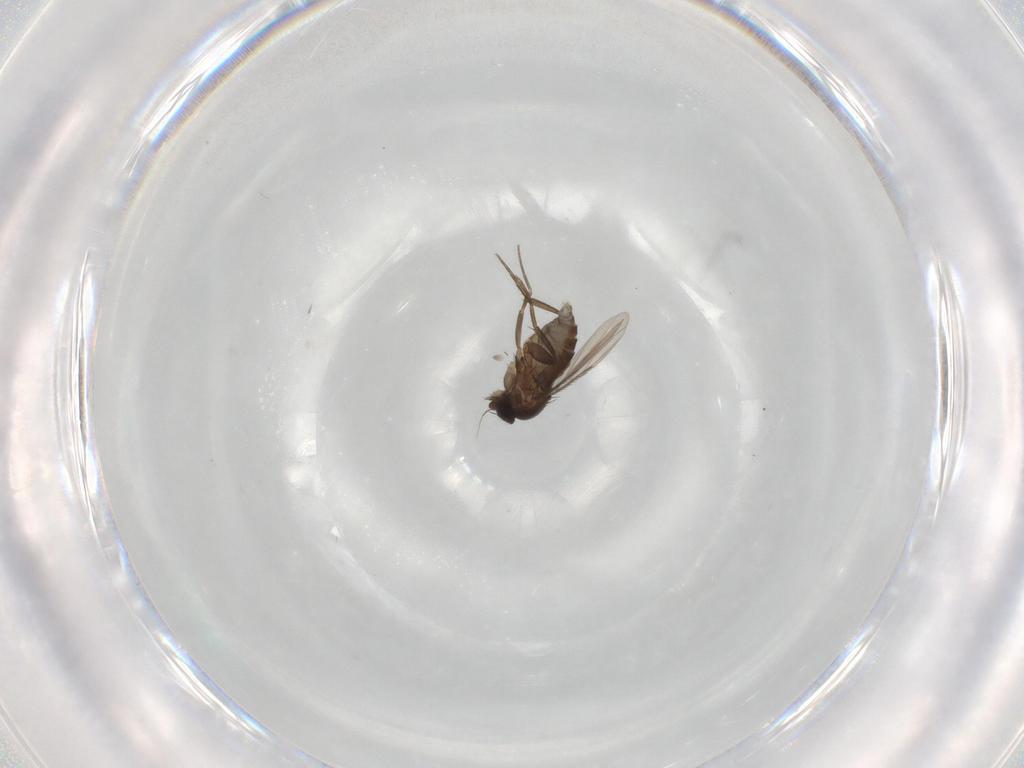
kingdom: Animalia
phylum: Arthropoda
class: Insecta
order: Diptera
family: Phoridae
